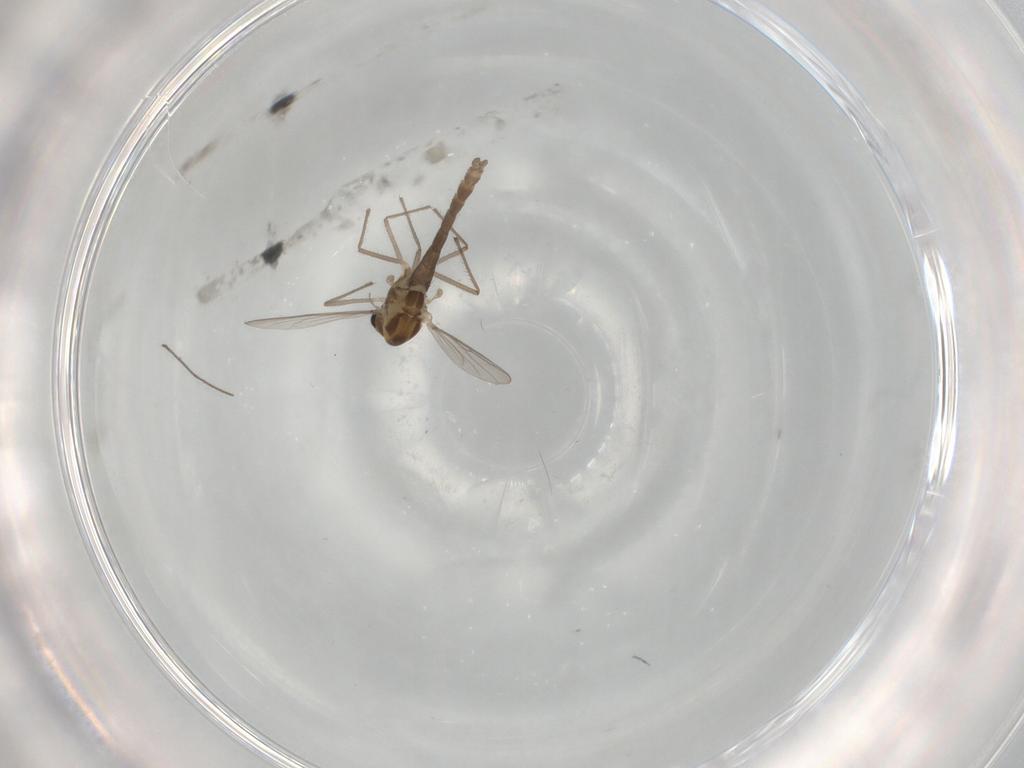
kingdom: Animalia
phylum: Arthropoda
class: Insecta
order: Diptera
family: Chironomidae
